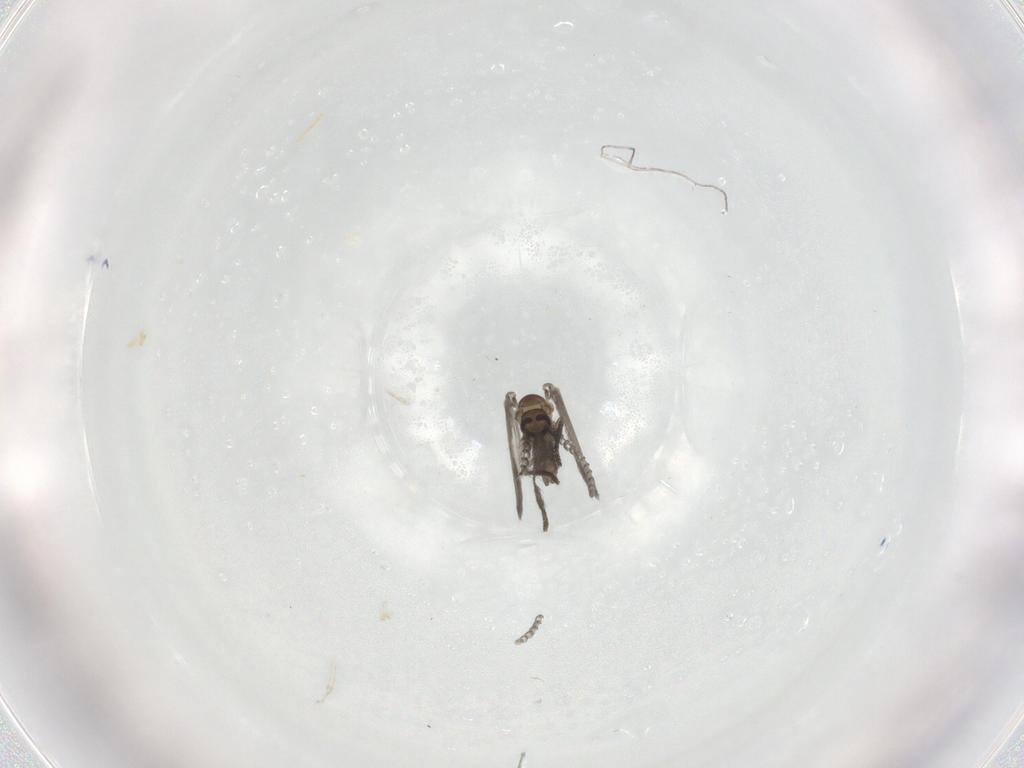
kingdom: Animalia
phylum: Arthropoda
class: Insecta
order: Diptera
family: Psychodidae
